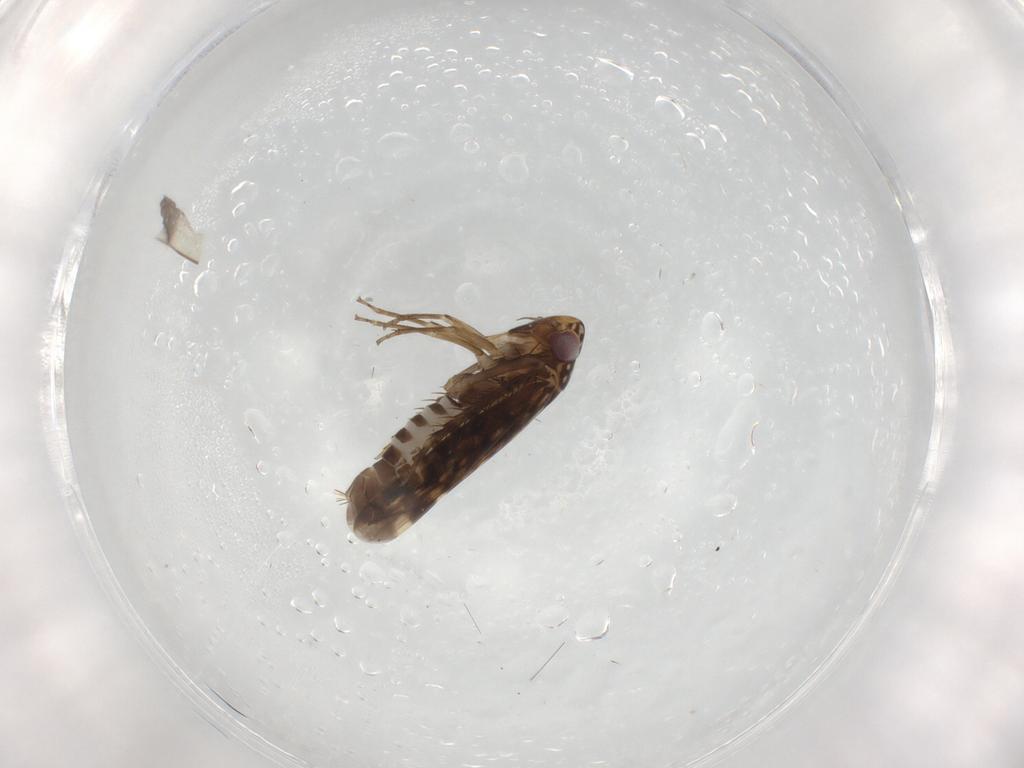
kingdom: Animalia
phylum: Arthropoda
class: Insecta
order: Hemiptera
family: Cicadellidae
